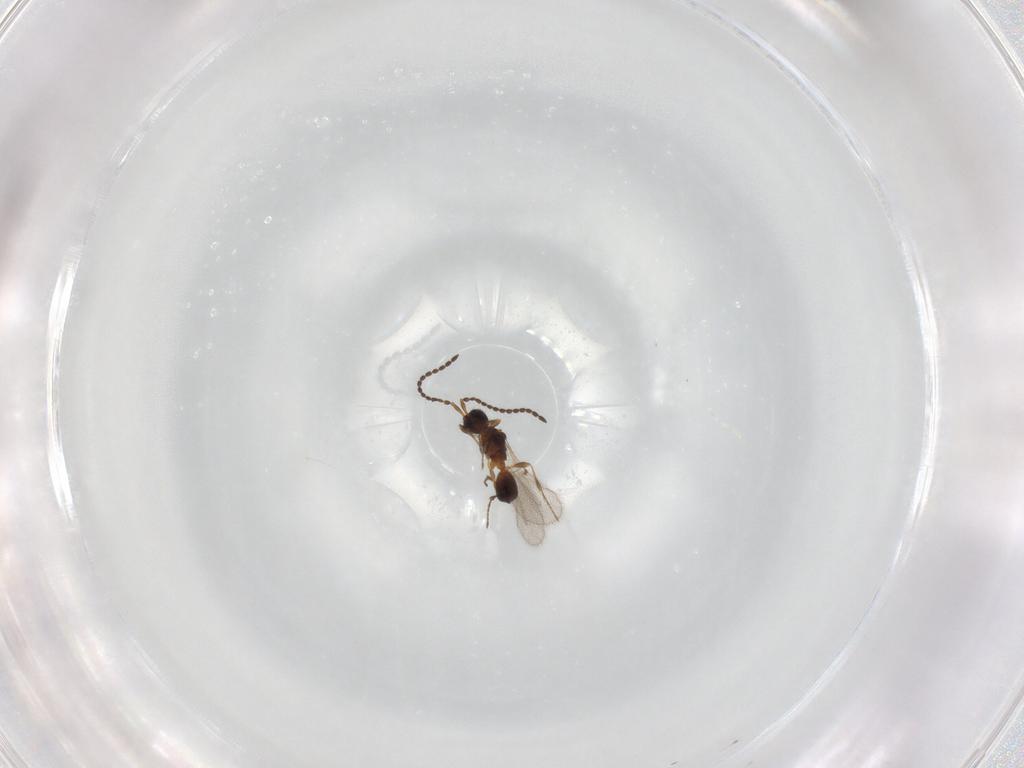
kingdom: Animalia
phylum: Arthropoda
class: Insecta
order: Hymenoptera
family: Diapriidae
